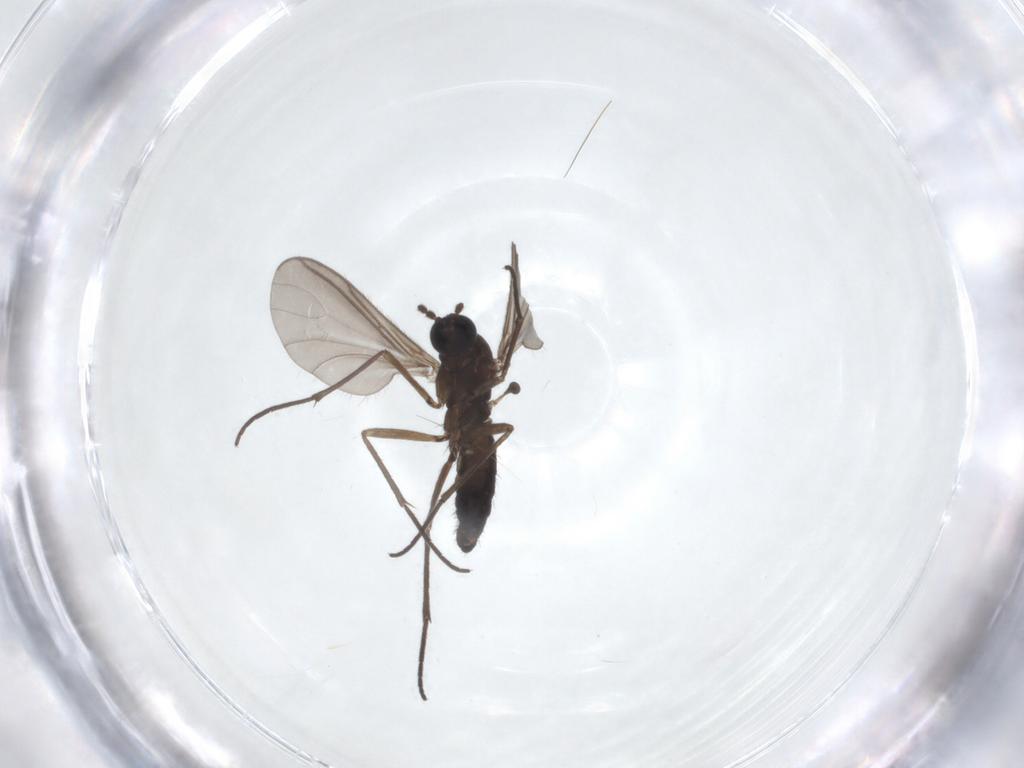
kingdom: Animalia
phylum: Arthropoda
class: Insecta
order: Diptera
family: Sciaridae
